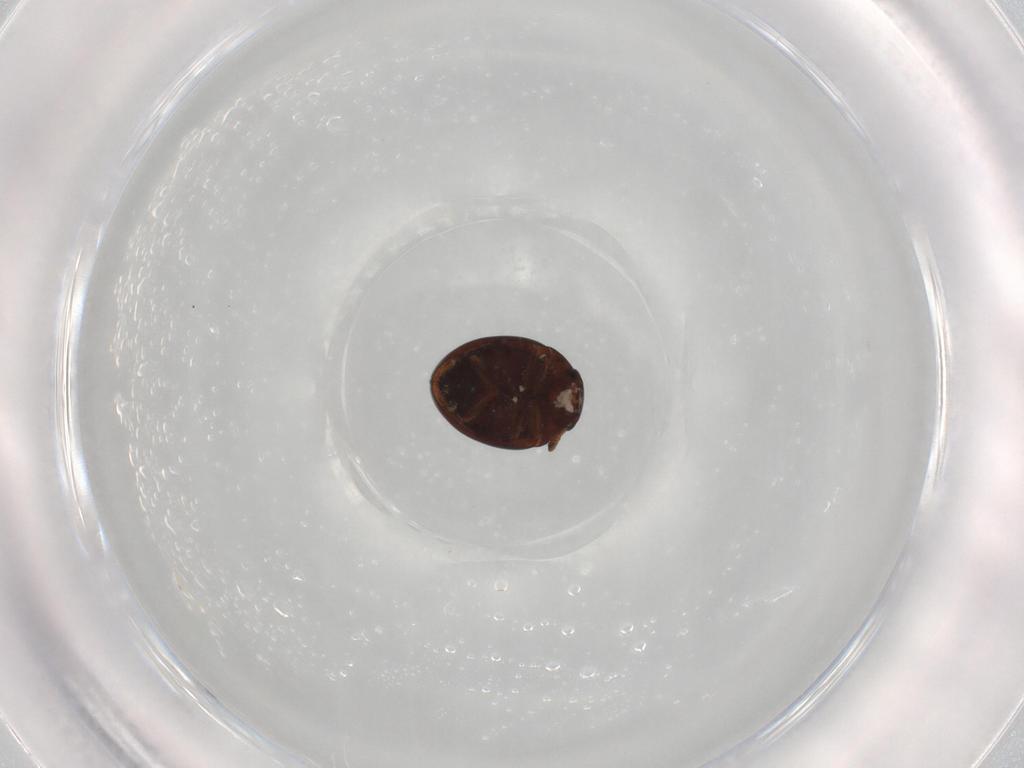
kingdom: Animalia
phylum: Arthropoda
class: Insecta
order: Coleoptera
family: Leiodidae
